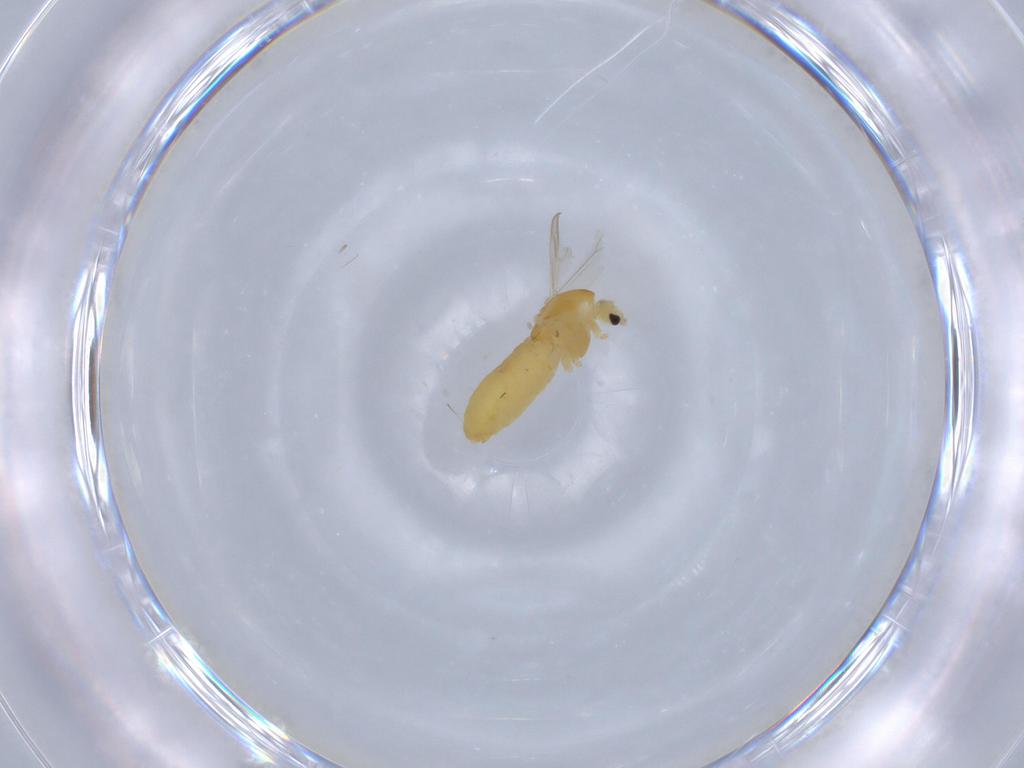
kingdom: Animalia
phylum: Arthropoda
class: Insecta
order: Diptera
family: Chironomidae
